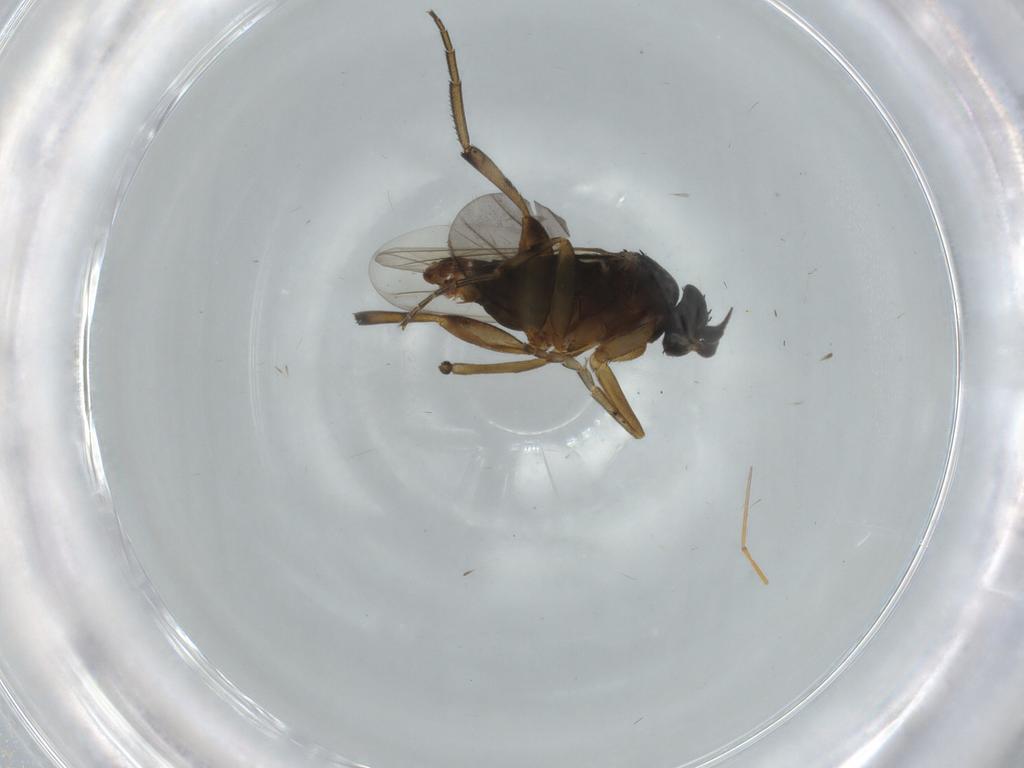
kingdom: Animalia
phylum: Arthropoda
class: Insecta
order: Diptera
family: Phoridae
